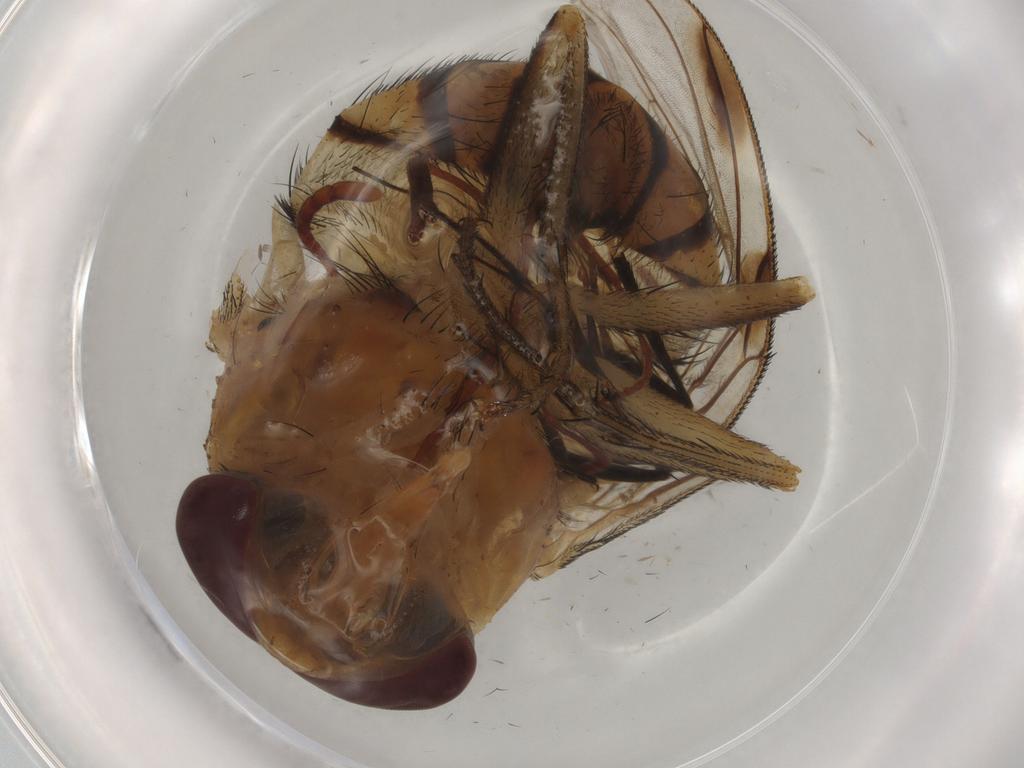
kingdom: Animalia
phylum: Arthropoda
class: Insecta
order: Diptera
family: Calliphoridae
